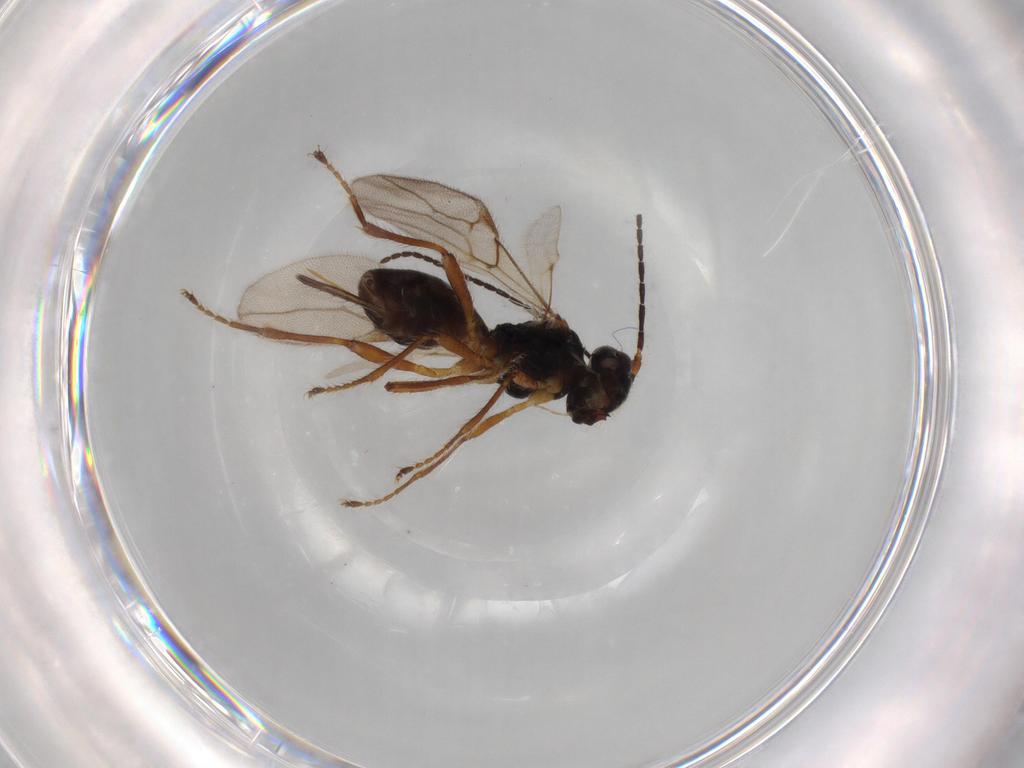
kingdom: Animalia
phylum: Arthropoda
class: Insecta
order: Hymenoptera
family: Braconidae
